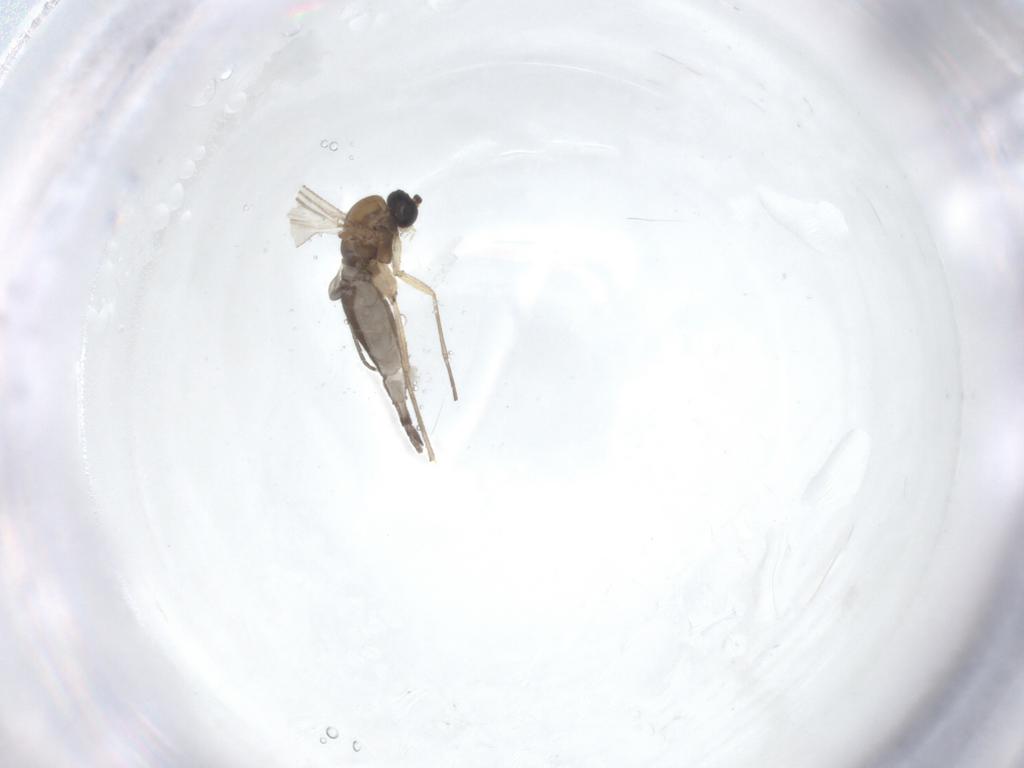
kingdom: Animalia
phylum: Arthropoda
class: Insecta
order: Diptera
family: Sciaridae
